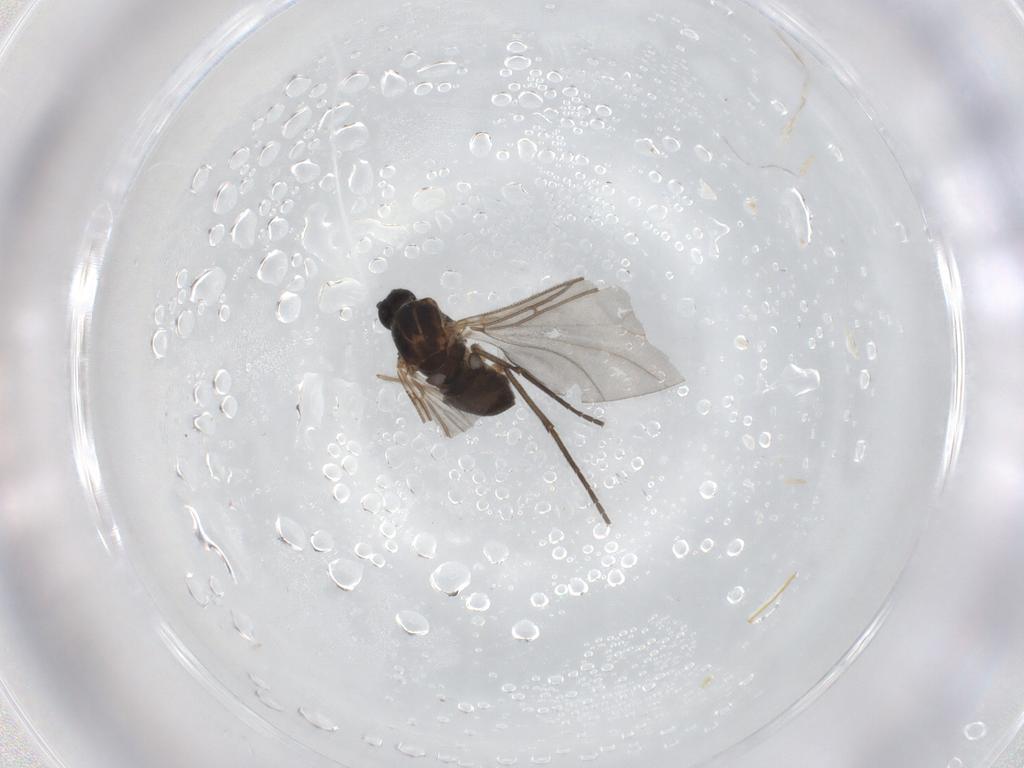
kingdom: Animalia
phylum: Arthropoda
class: Insecta
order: Diptera
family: Sciaridae
